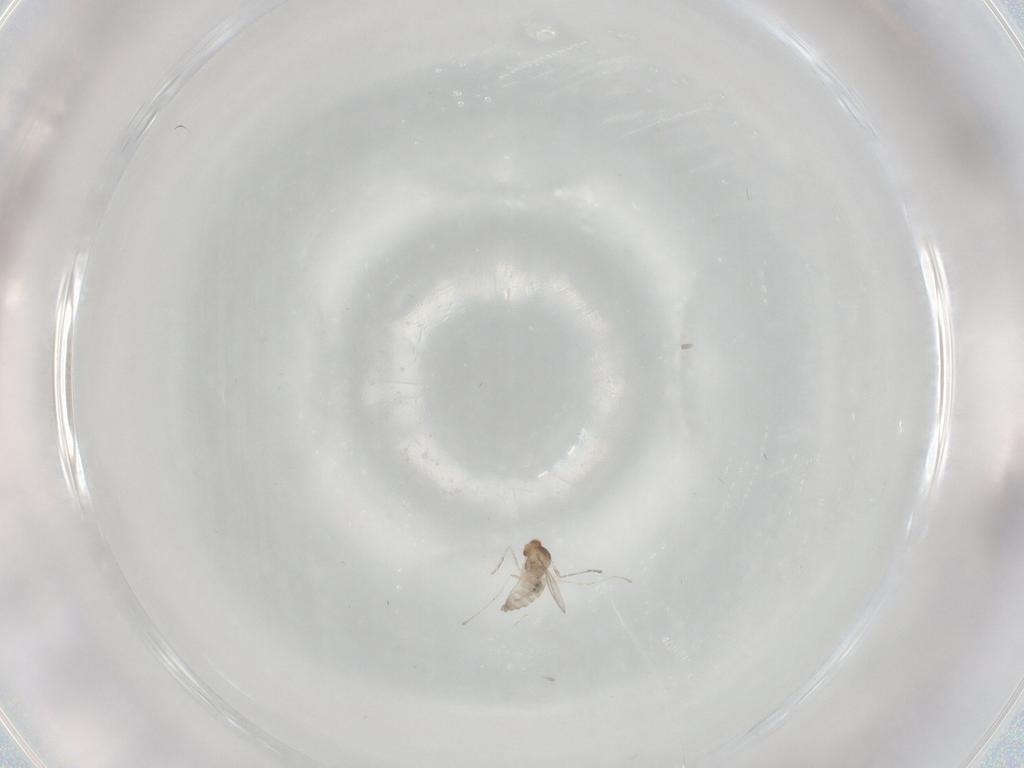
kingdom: Animalia
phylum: Arthropoda
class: Insecta
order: Diptera
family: Cecidomyiidae
